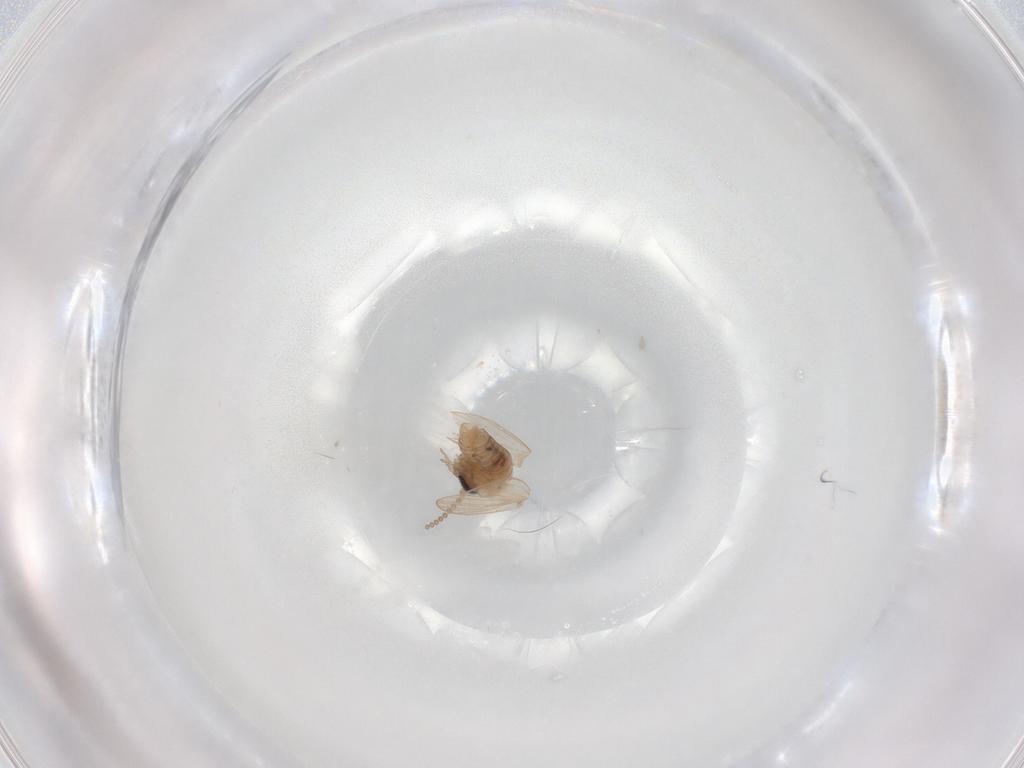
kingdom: Animalia
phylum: Arthropoda
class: Insecta
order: Diptera
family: Psychodidae
